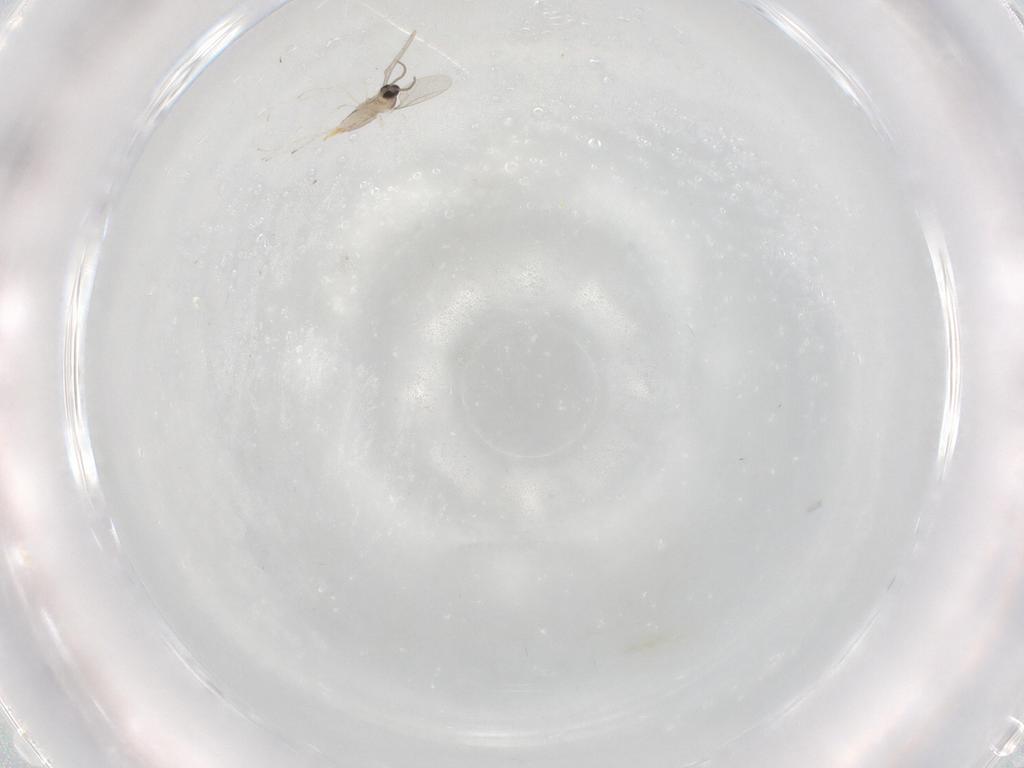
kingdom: Animalia
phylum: Arthropoda
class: Insecta
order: Diptera
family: Cecidomyiidae
